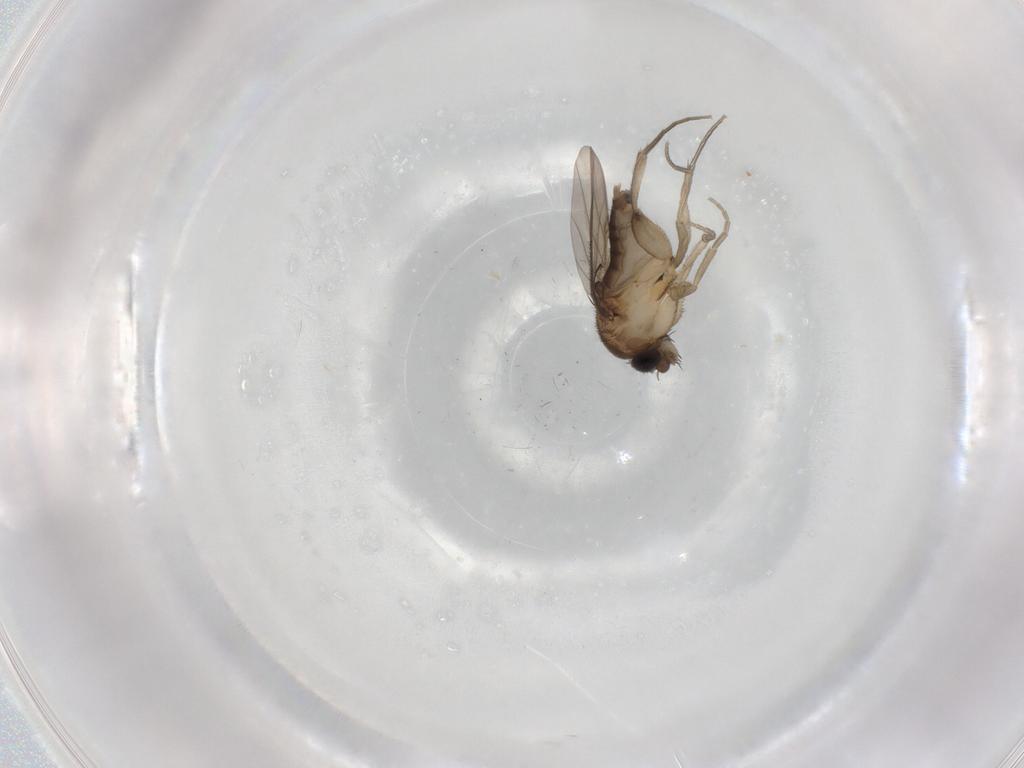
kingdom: Animalia
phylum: Arthropoda
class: Insecta
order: Diptera
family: Phoridae
